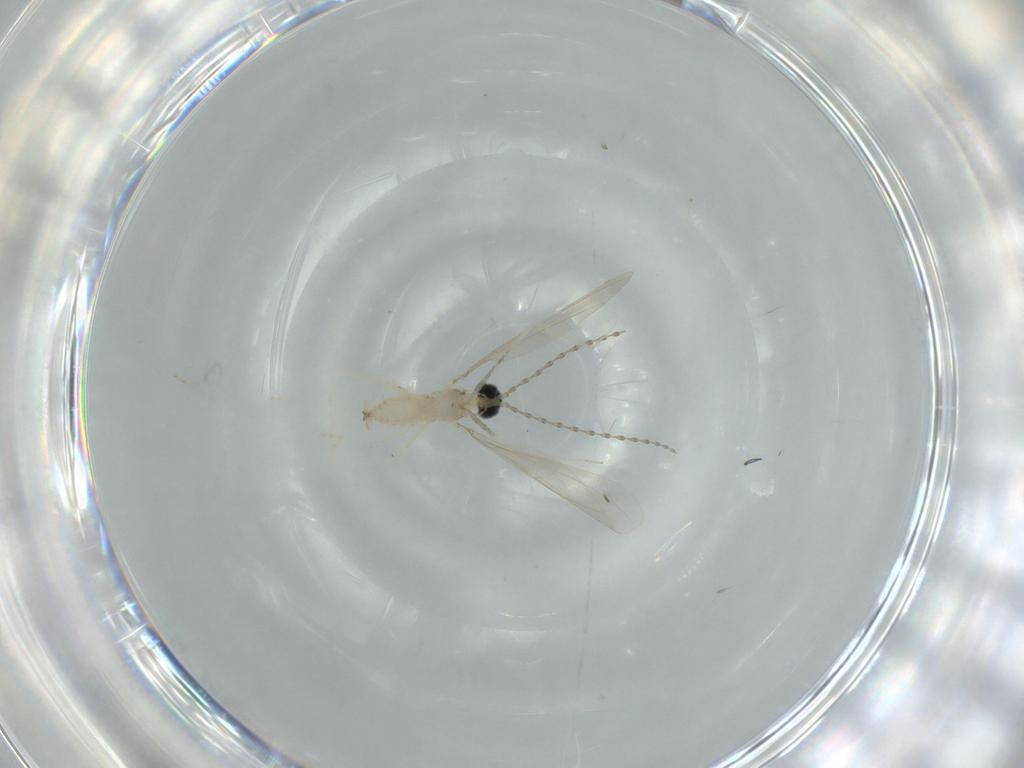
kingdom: Animalia
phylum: Arthropoda
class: Insecta
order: Diptera
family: Cecidomyiidae
